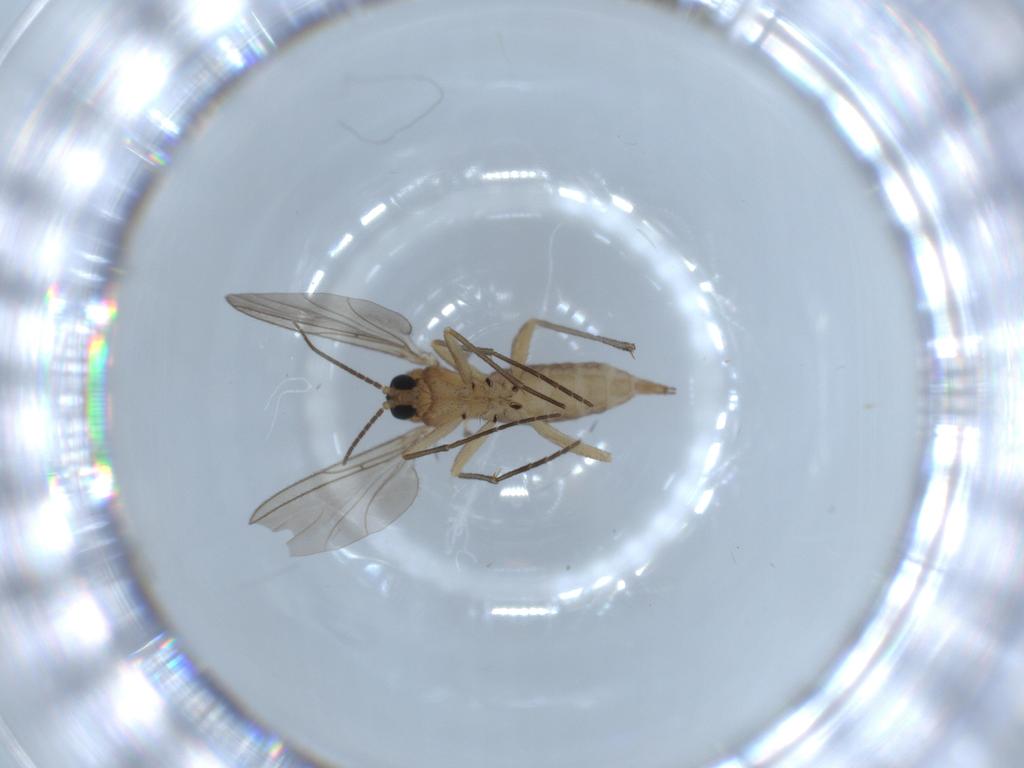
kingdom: Animalia
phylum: Arthropoda
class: Insecta
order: Diptera
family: Sciaridae
